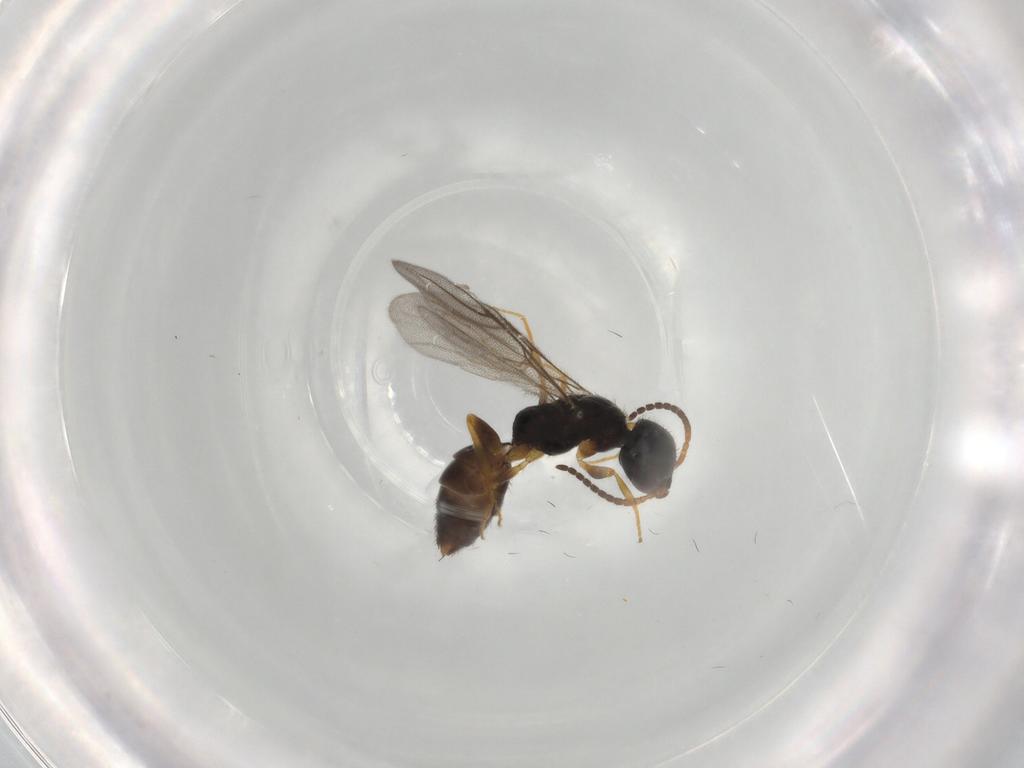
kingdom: Animalia
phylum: Arthropoda
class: Insecta
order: Hymenoptera
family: Bethylidae
